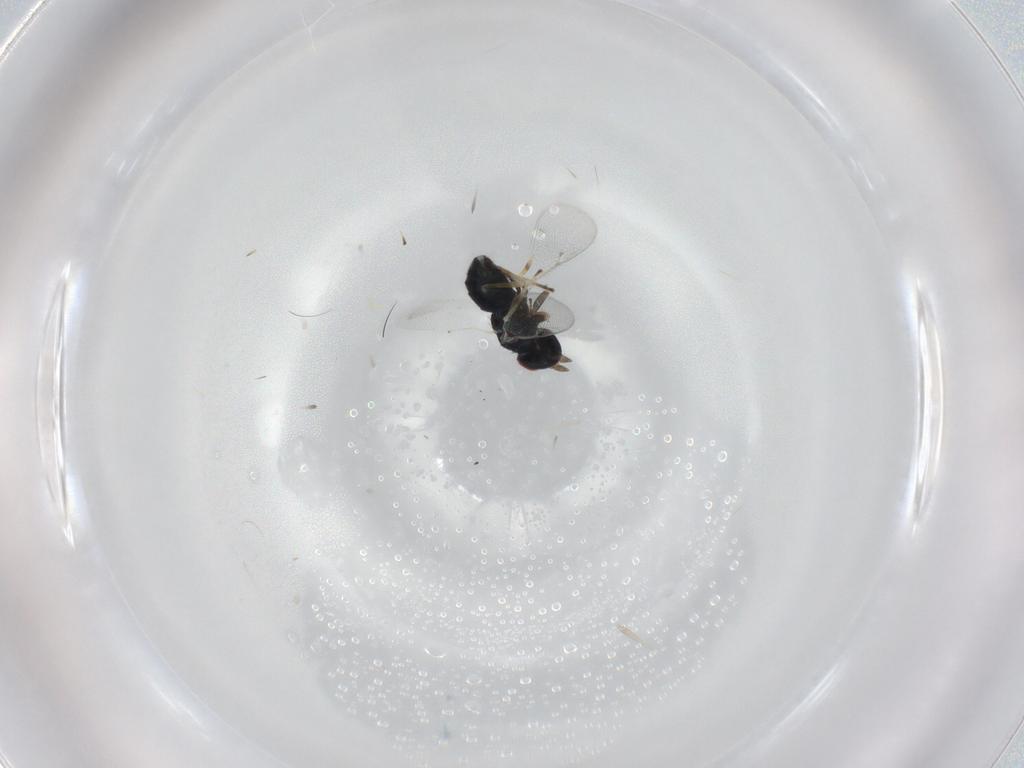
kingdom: Animalia
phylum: Arthropoda
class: Insecta
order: Hymenoptera
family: Eulophidae
